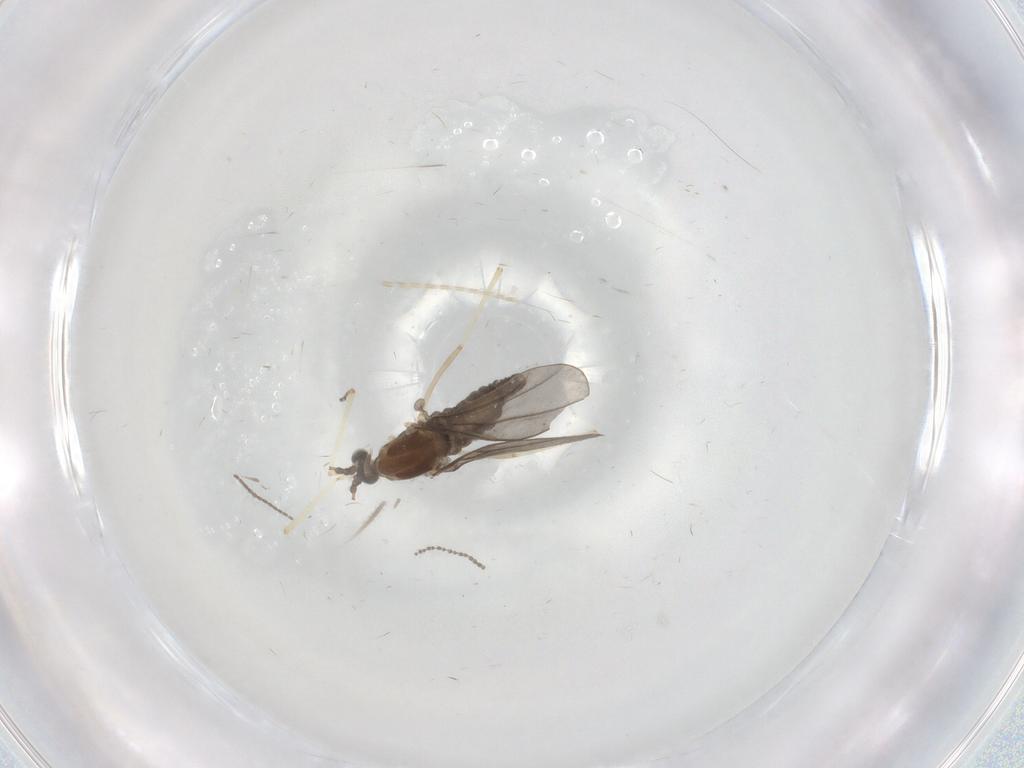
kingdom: Animalia
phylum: Arthropoda
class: Insecta
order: Diptera
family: Psychodidae
